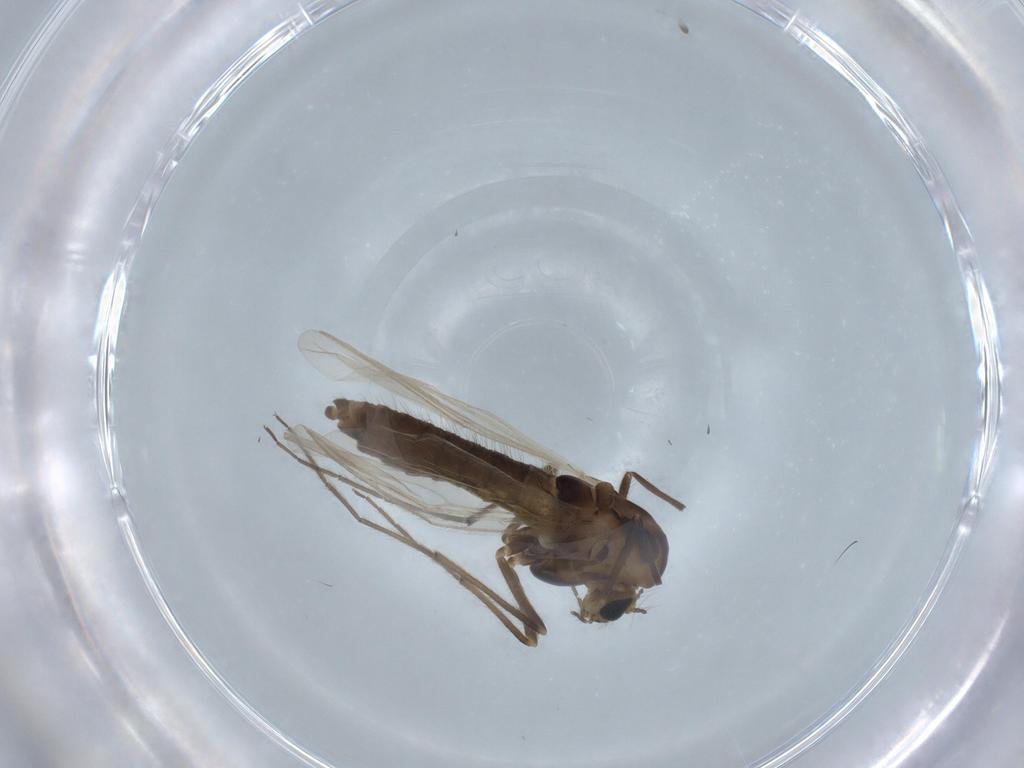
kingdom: Animalia
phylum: Arthropoda
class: Insecta
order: Diptera
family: Chironomidae
